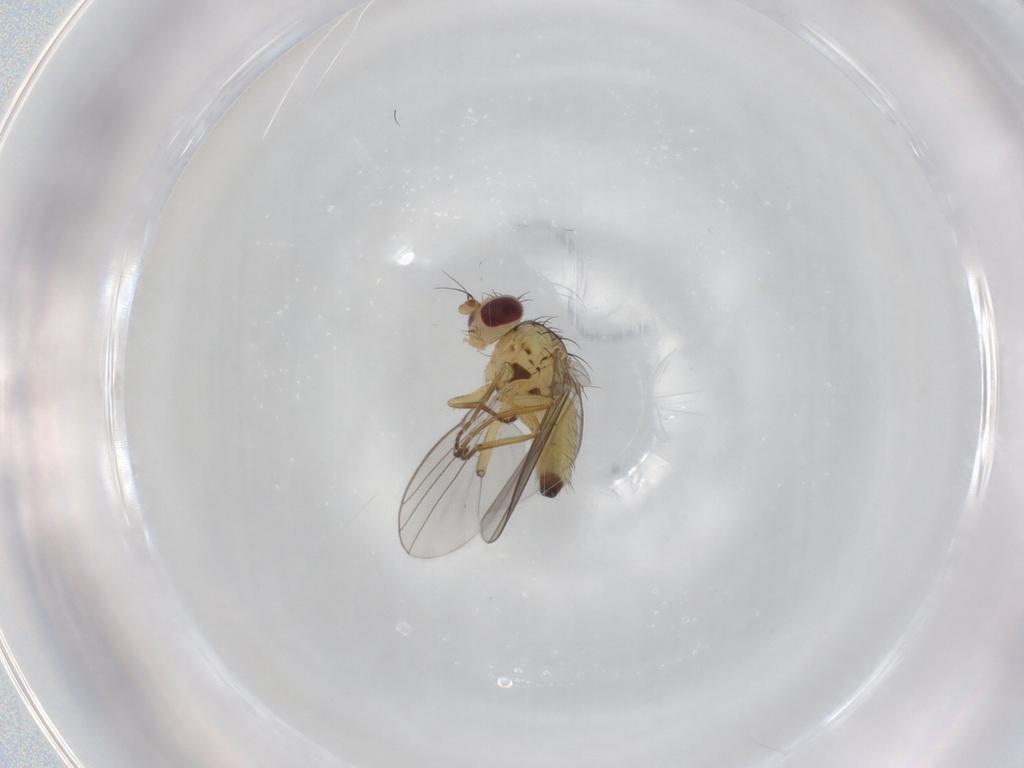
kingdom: Animalia
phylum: Arthropoda
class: Insecta
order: Diptera
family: Agromyzidae
